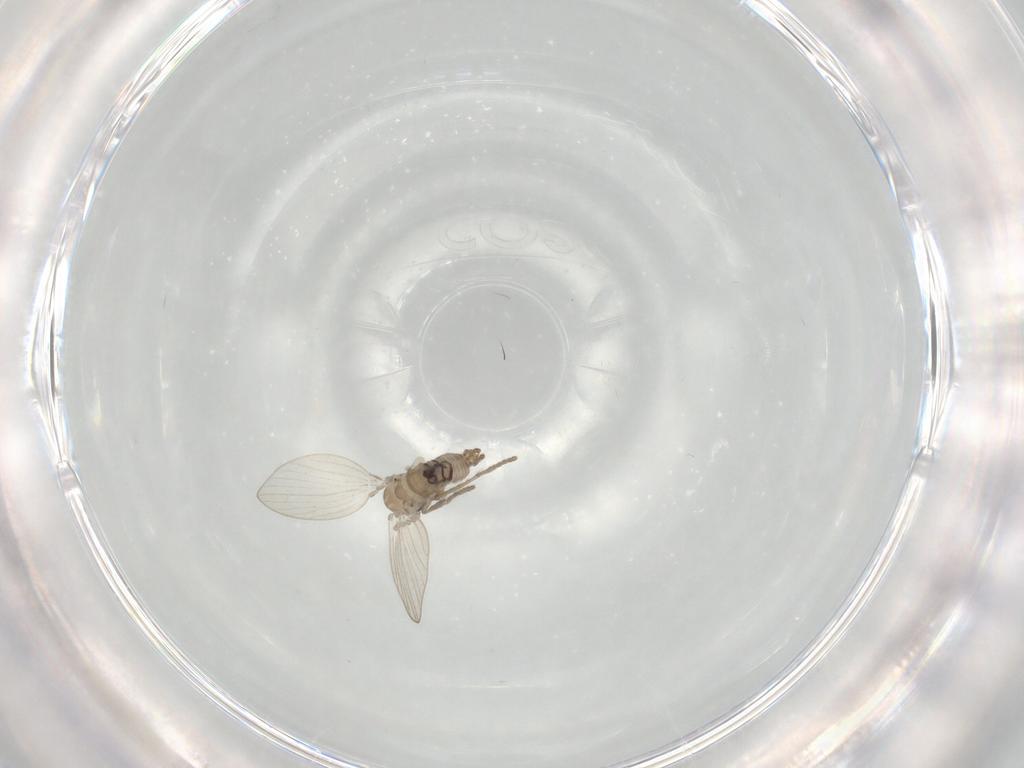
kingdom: Animalia
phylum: Arthropoda
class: Insecta
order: Diptera
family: Psychodidae
